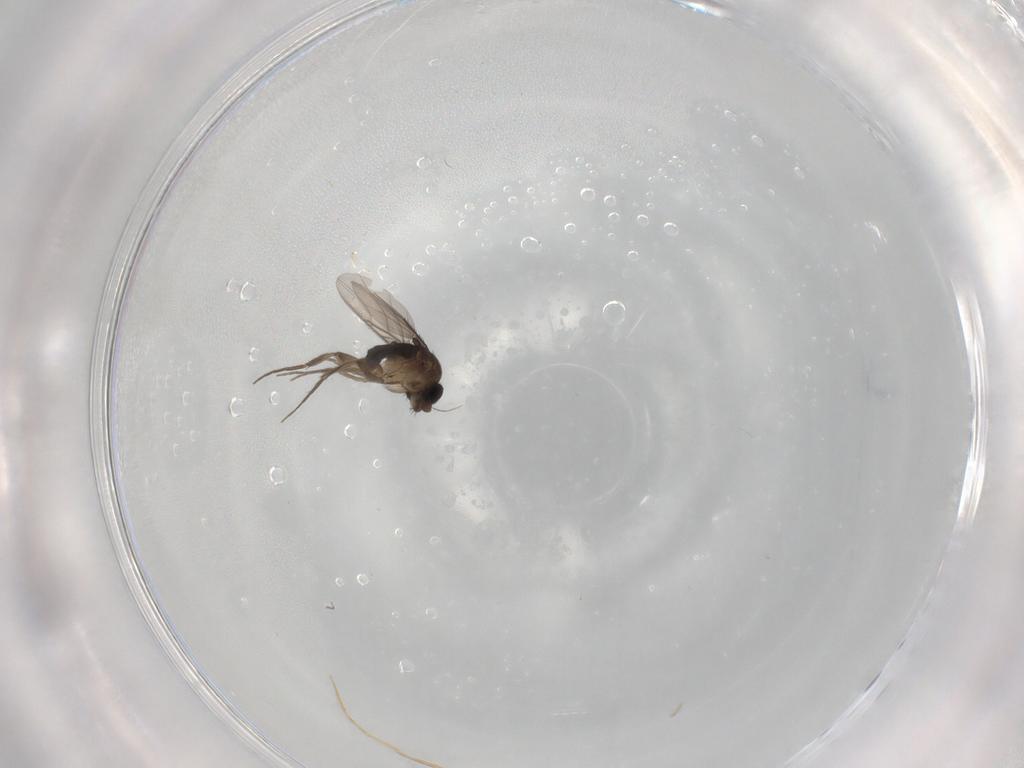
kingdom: Animalia
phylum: Arthropoda
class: Insecta
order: Diptera
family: Phoridae
